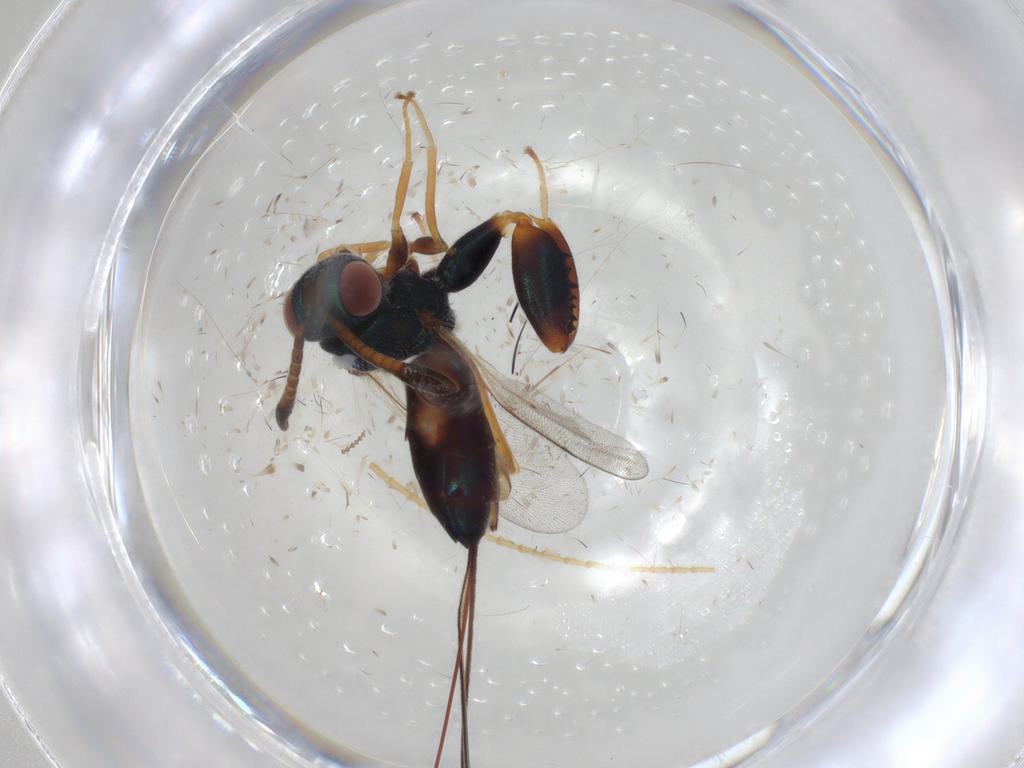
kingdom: Animalia
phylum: Arthropoda
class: Insecta
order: Hymenoptera
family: Torymidae
